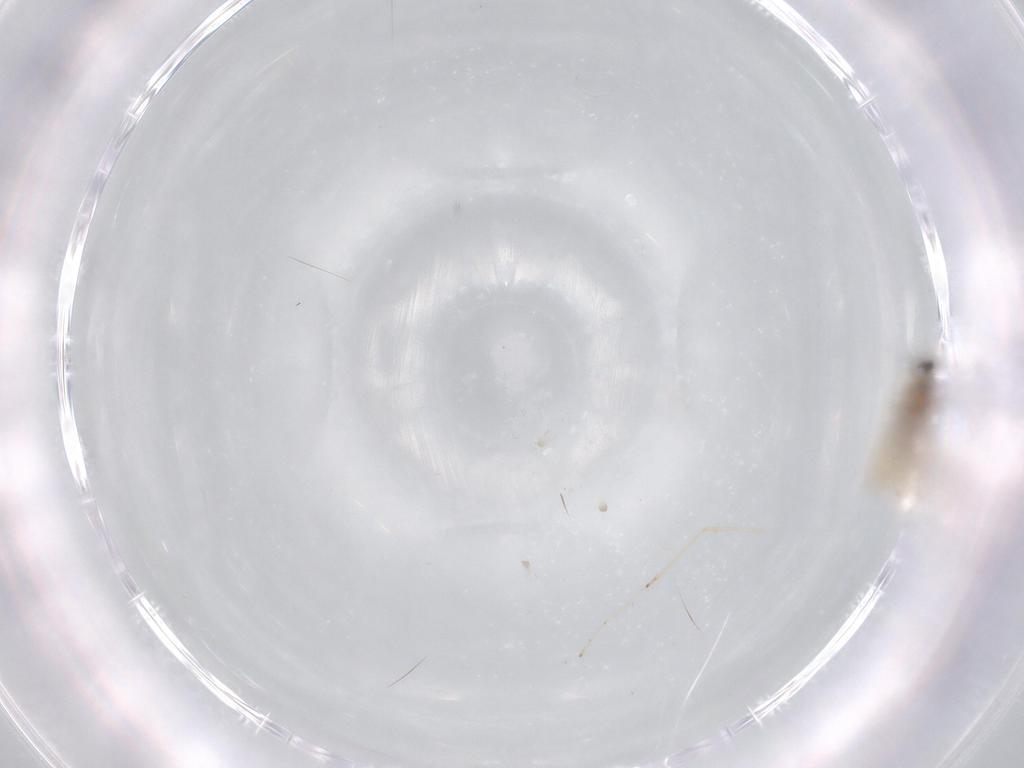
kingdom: Animalia
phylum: Arthropoda
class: Insecta
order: Diptera
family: Cecidomyiidae
